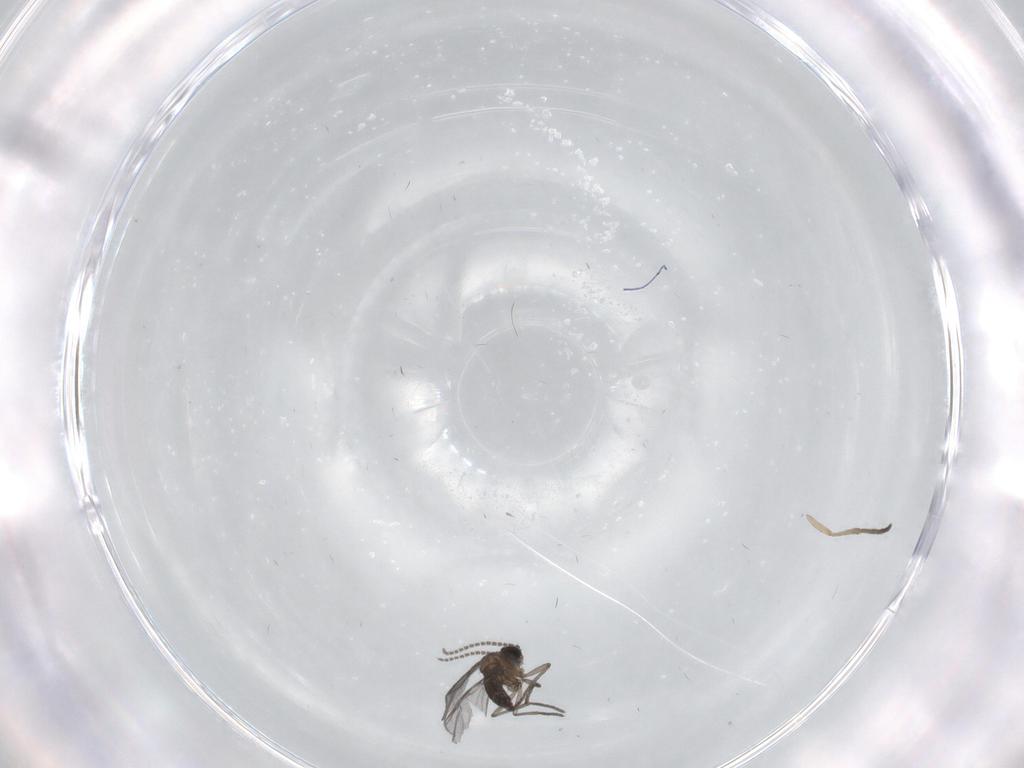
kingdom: Animalia
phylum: Arthropoda
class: Insecta
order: Diptera
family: Psychodidae
